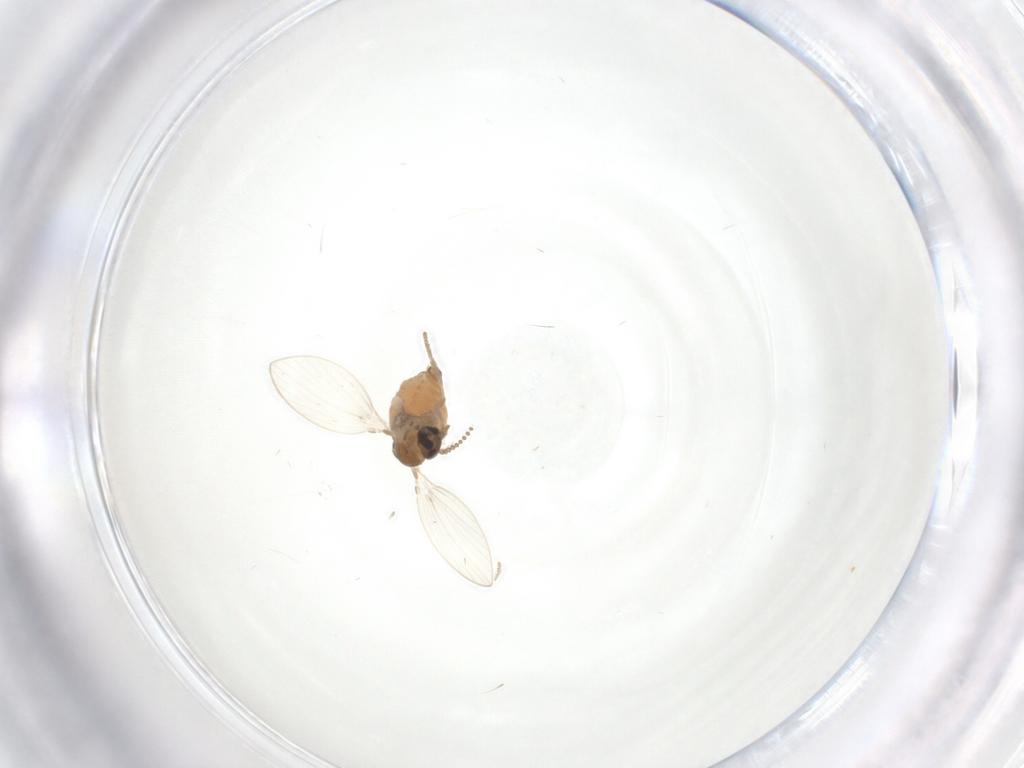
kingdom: Animalia
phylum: Arthropoda
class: Insecta
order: Diptera
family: Psychodidae
